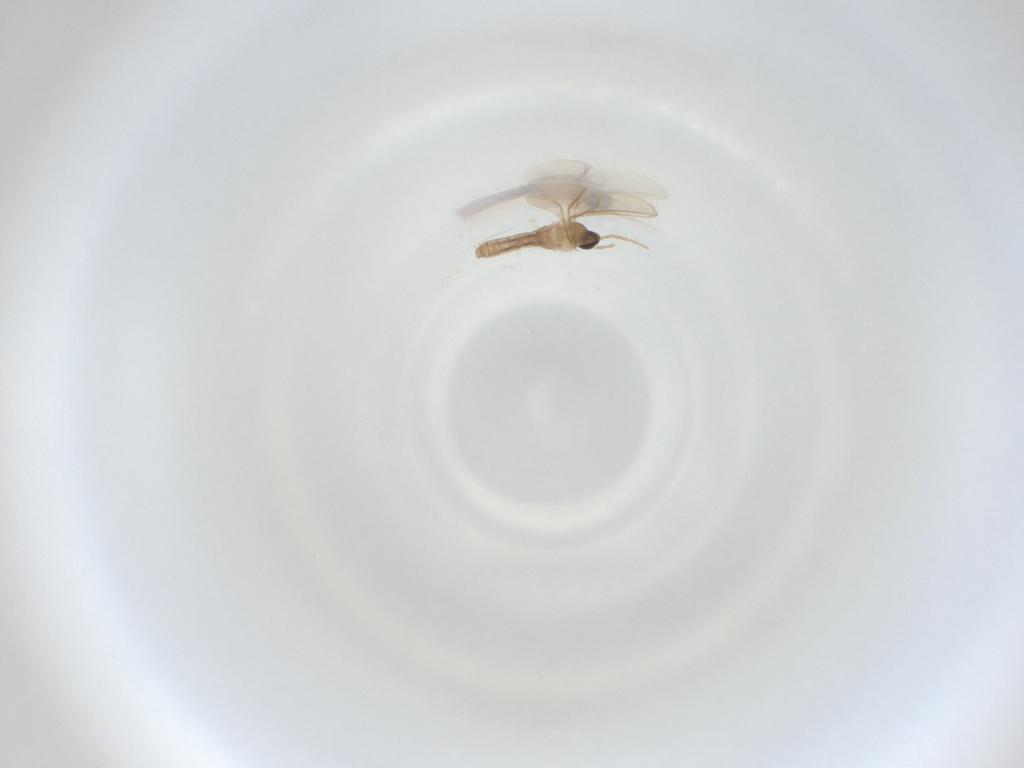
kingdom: Animalia
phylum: Arthropoda
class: Insecta
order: Diptera
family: Cecidomyiidae
